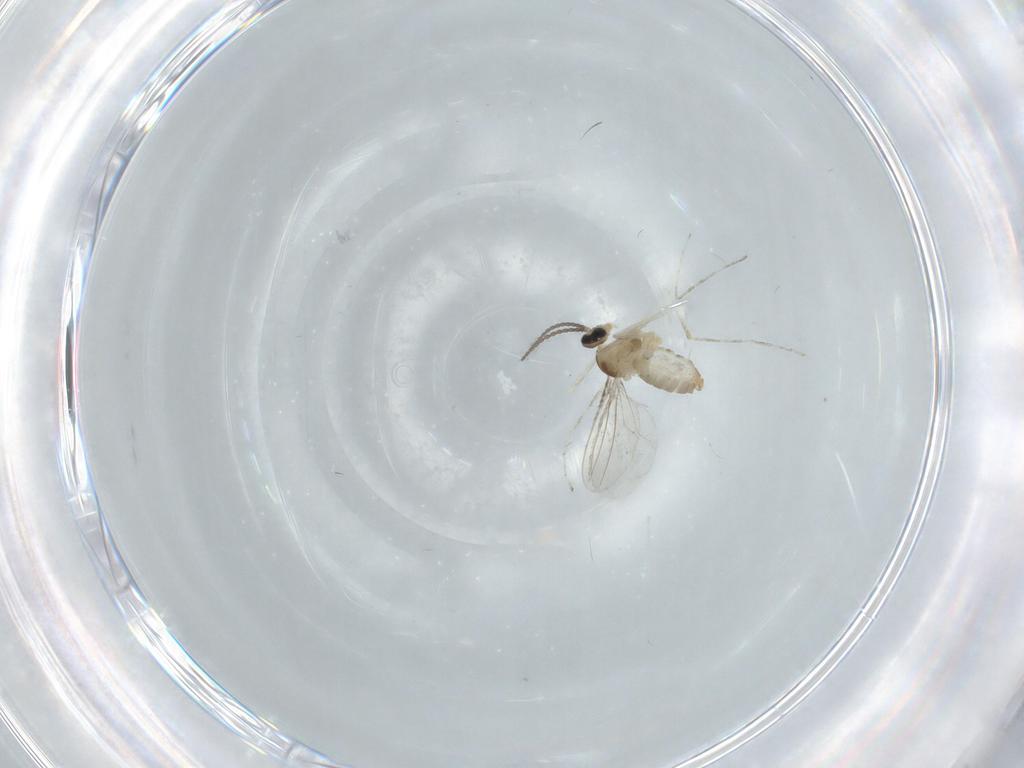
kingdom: Animalia
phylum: Arthropoda
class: Insecta
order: Diptera
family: Cecidomyiidae
